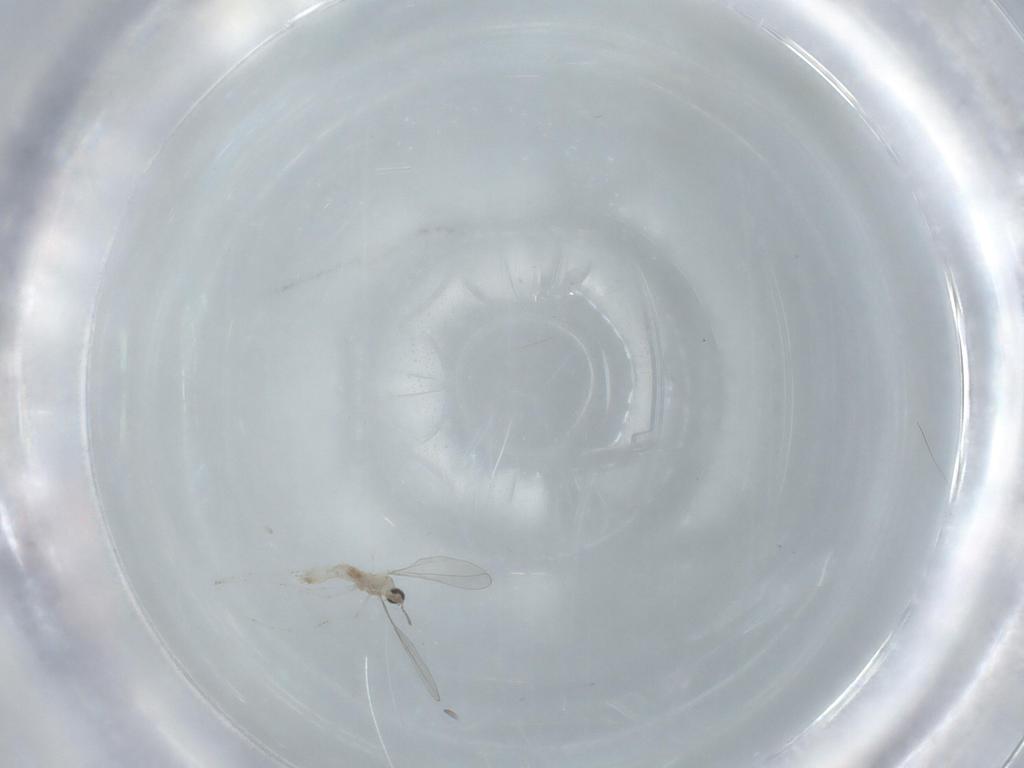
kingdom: Animalia
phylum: Arthropoda
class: Insecta
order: Diptera
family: Cecidomyiidae
